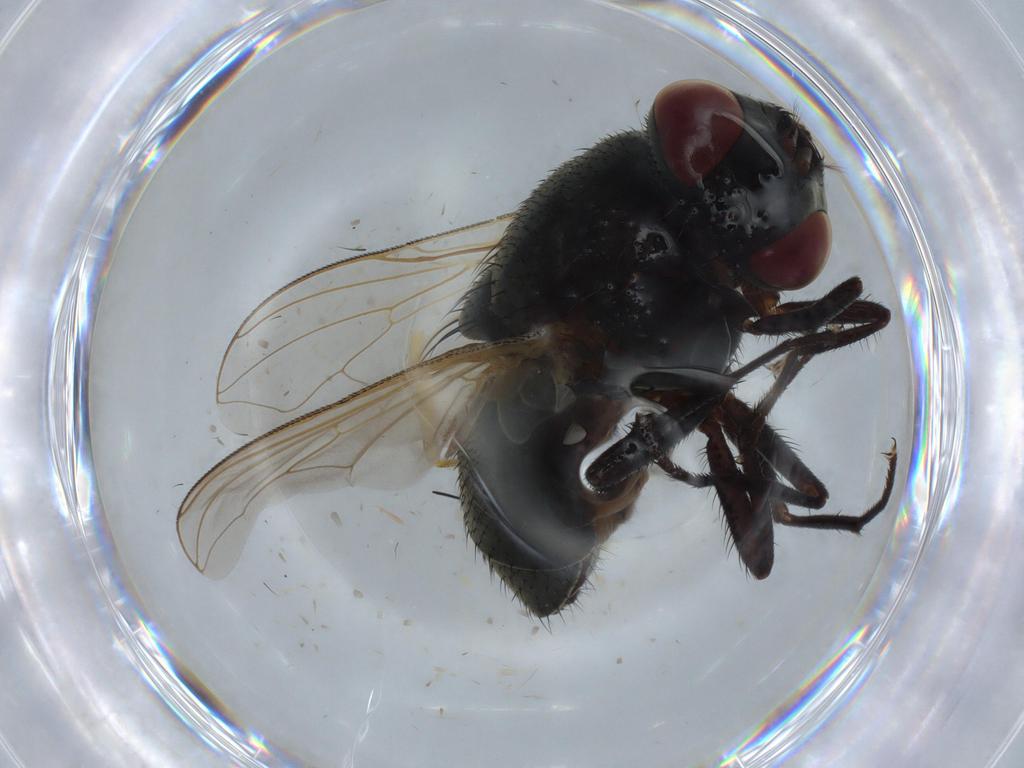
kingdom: Animalia
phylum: Arthropoda
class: Insecta
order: Diptera
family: Cecidomyiidae
